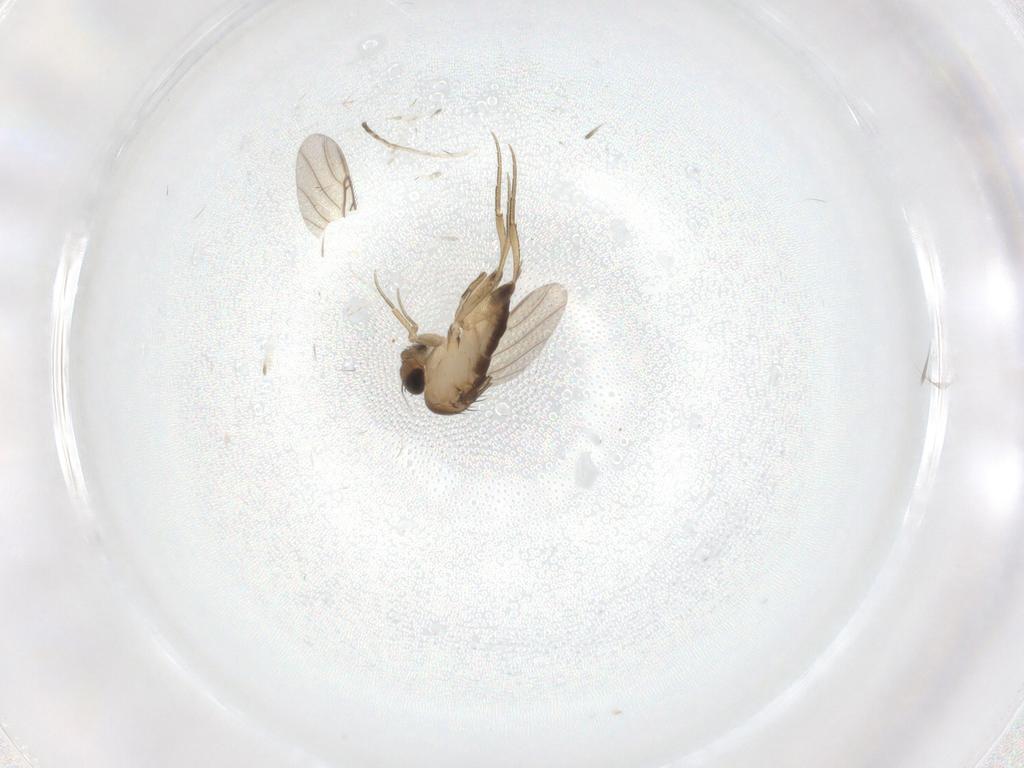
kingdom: Animalia
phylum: Arthropoda
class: Insecta
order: Diptera
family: Phoridae
